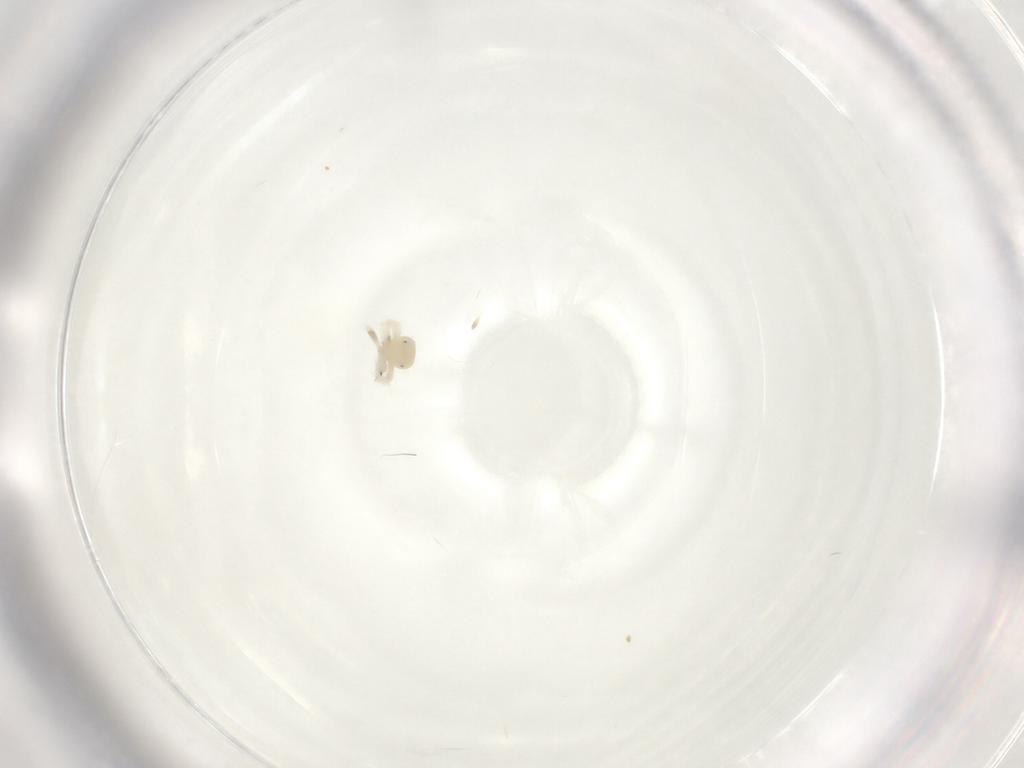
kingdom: Animalia
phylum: Arthropoda
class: Arachnida
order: Trombidiformes
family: Anystidae
